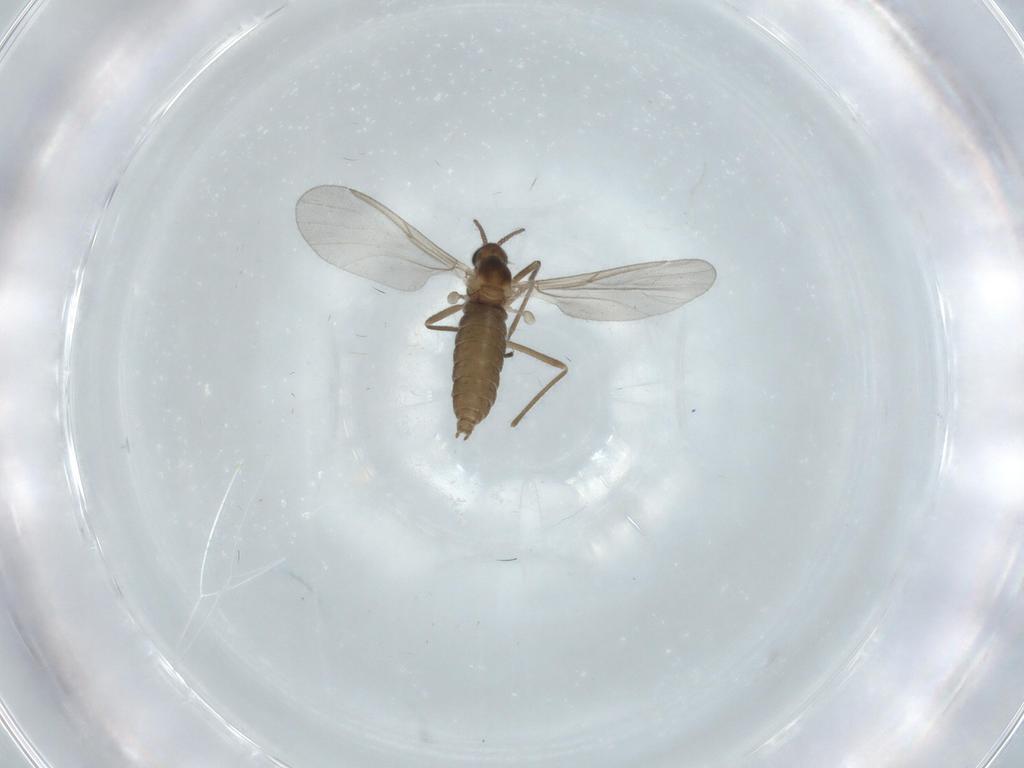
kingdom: Animalia
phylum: Arthropoda
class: Insecta
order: Diptera
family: Cecidomyiidae
